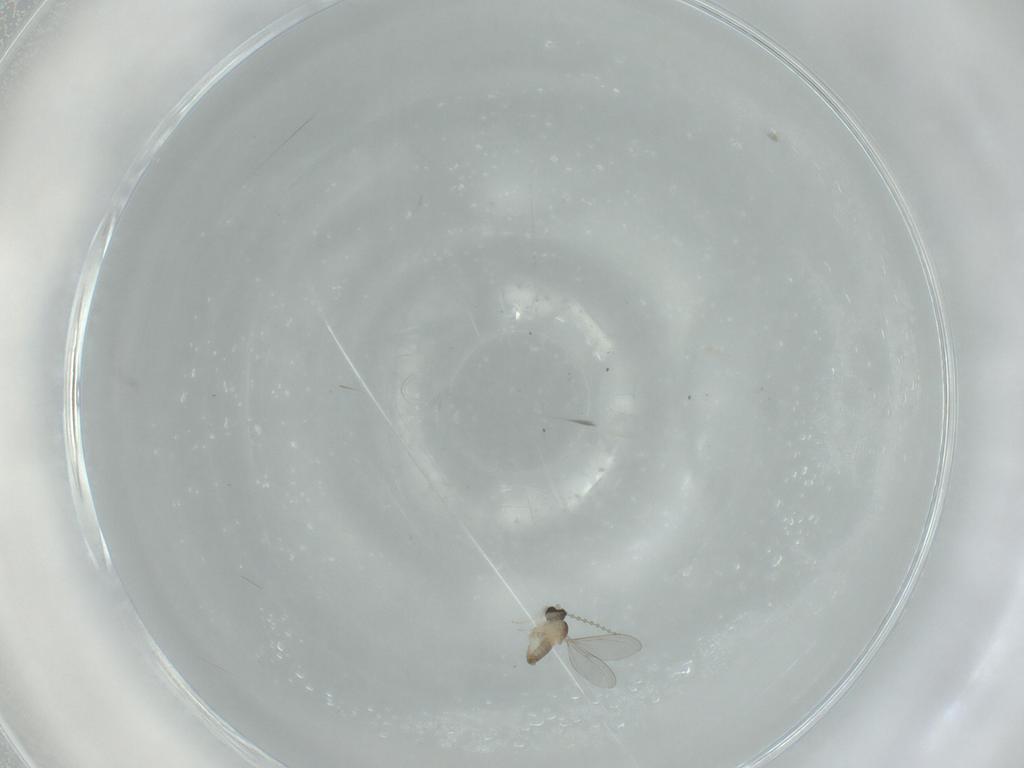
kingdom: Animalia
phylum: Arthropoda
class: Insecta
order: Diptera
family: Cecidomyiidae
